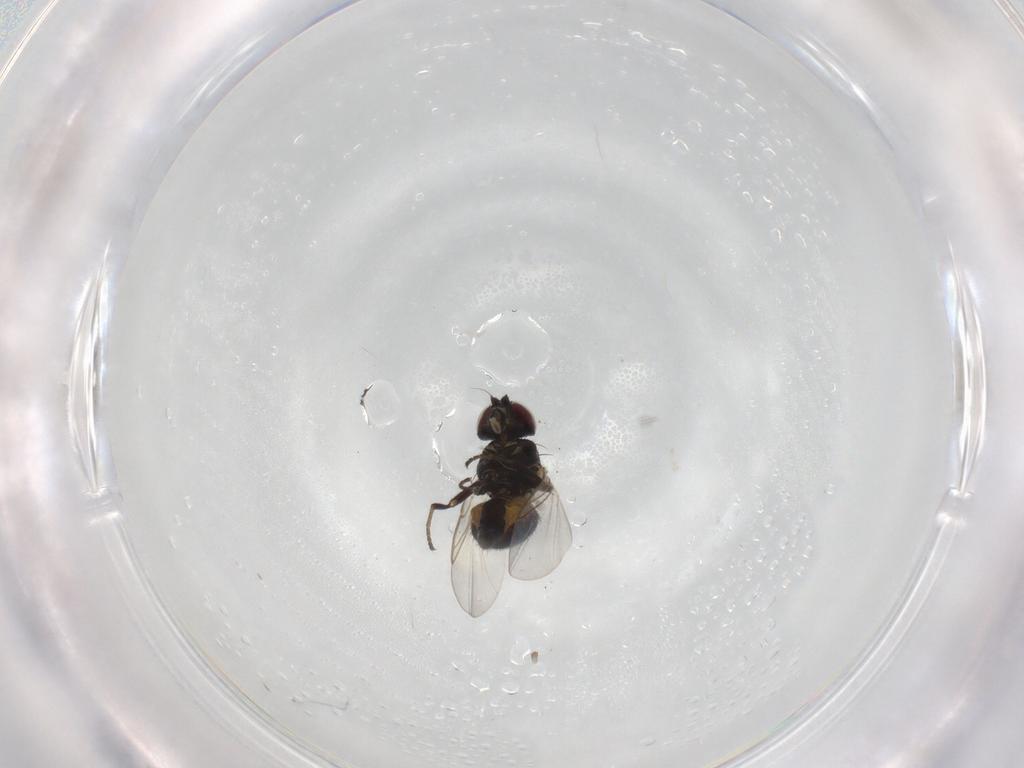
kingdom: Animalia
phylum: Arthropoda
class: Insecta
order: Diptera
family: Agromyzidae
